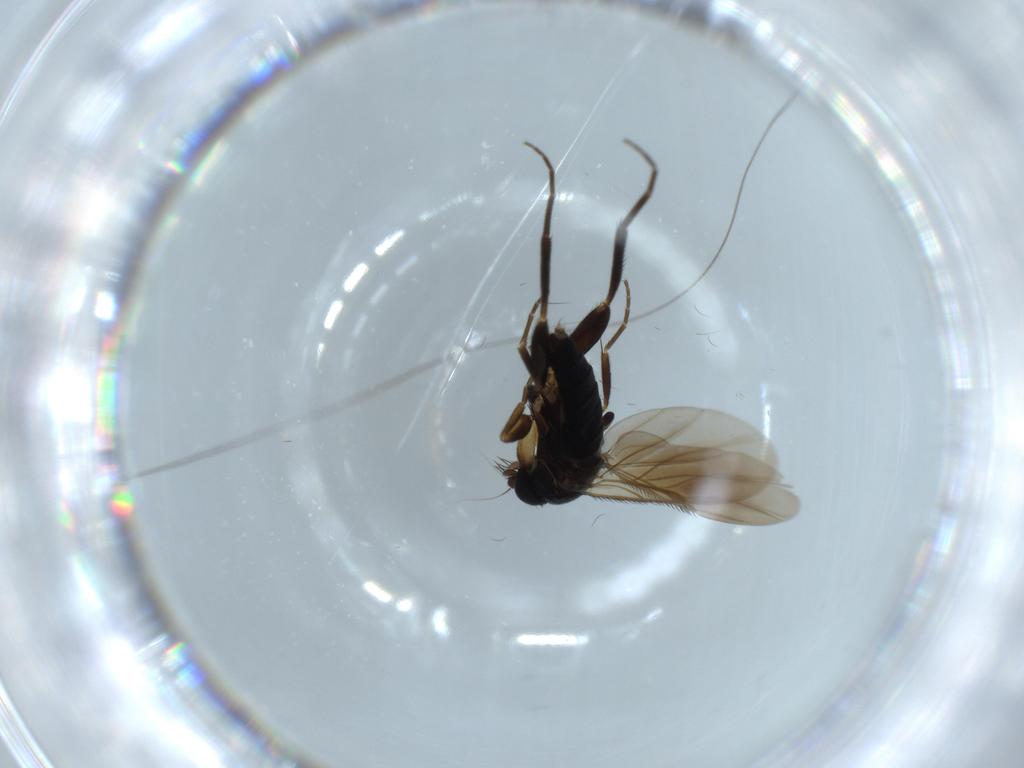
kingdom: Animalia
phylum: Arthropoda
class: Insecta
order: Diptera
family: Phoridae
